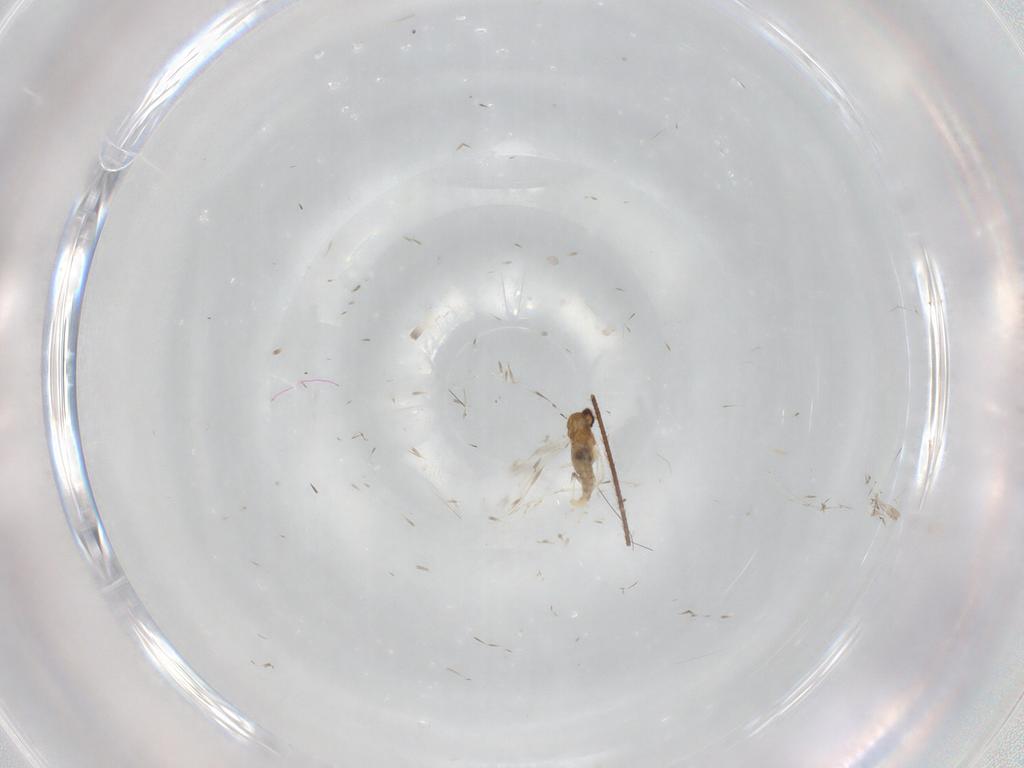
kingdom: Animalia
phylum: Arthropoda
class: Insecta
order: Diptera
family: Limoniidae
